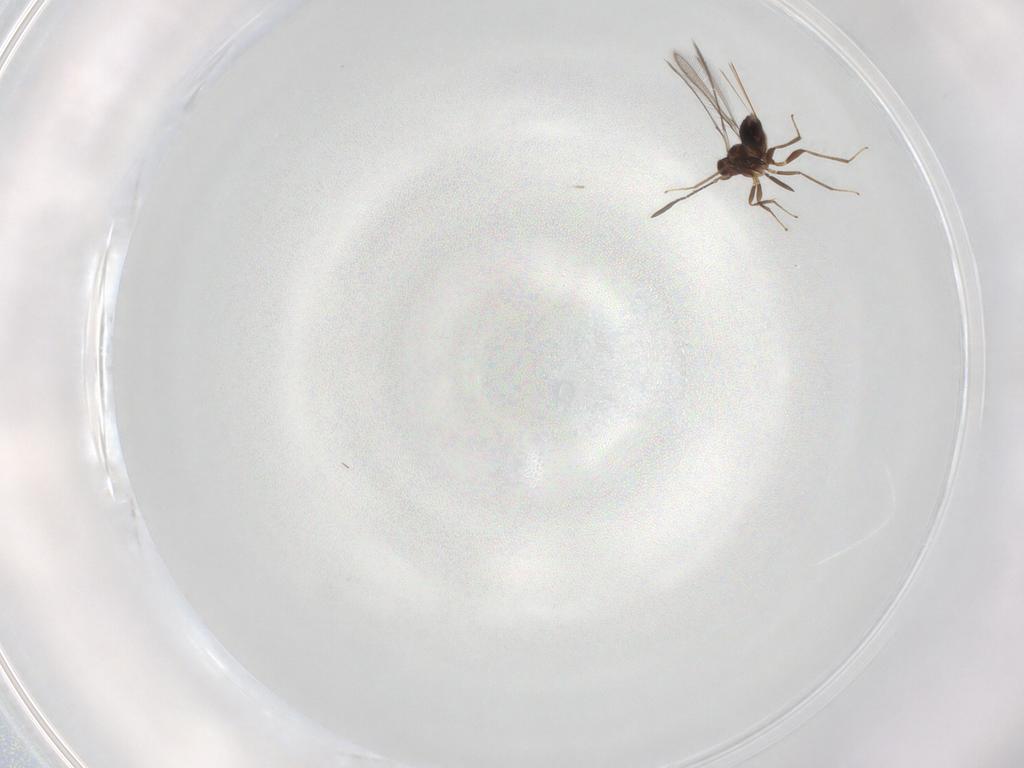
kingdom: Animalia
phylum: Arthropoda
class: Insecta
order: Hymenoptera
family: Mymaridae
